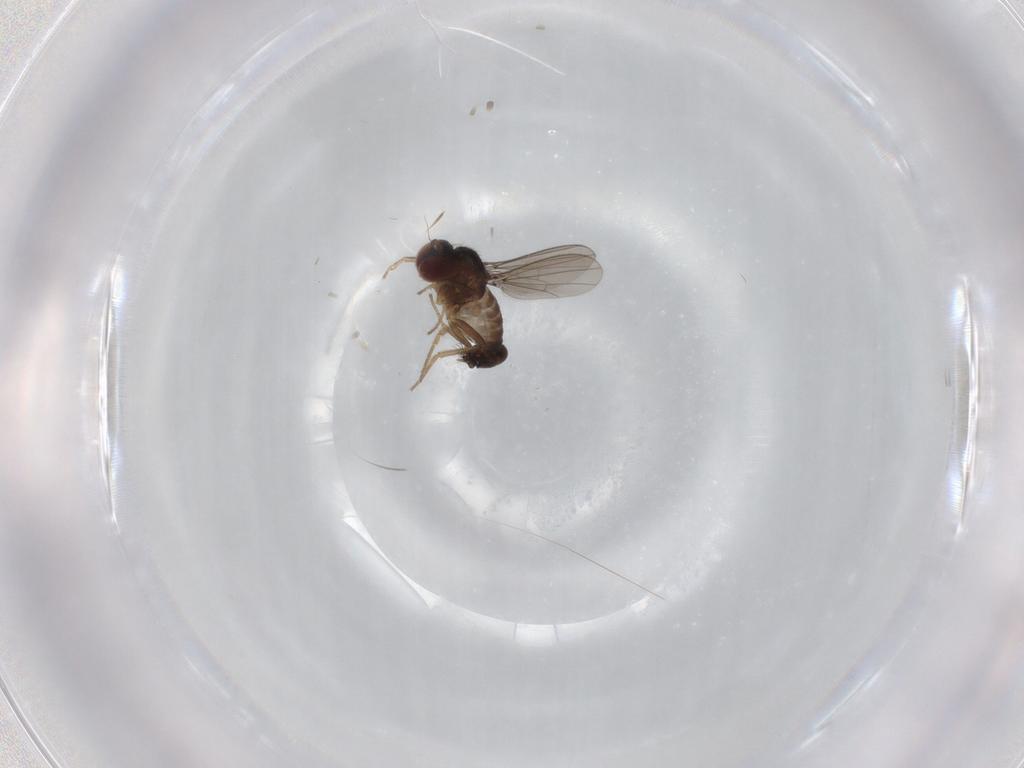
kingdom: Animalia
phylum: Arthropoda
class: Insecta
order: Diptera
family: Dolichopodidae
